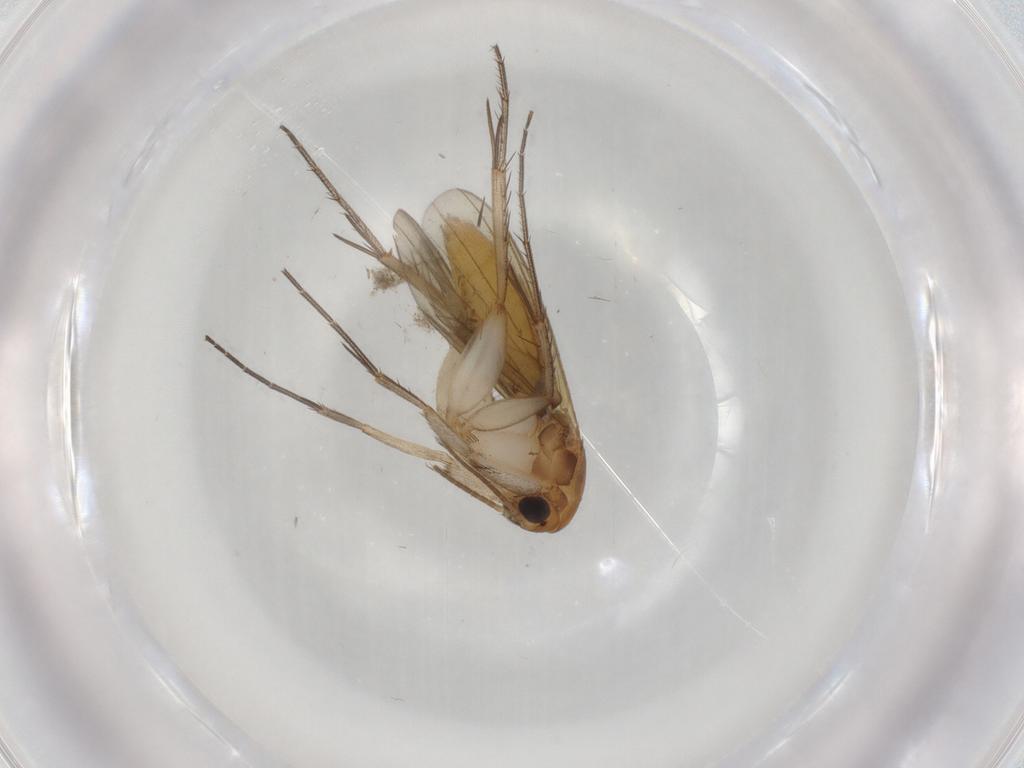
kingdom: Animalia
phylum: Arthropoda
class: Insecta
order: Diptera
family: Mycetophilidae
